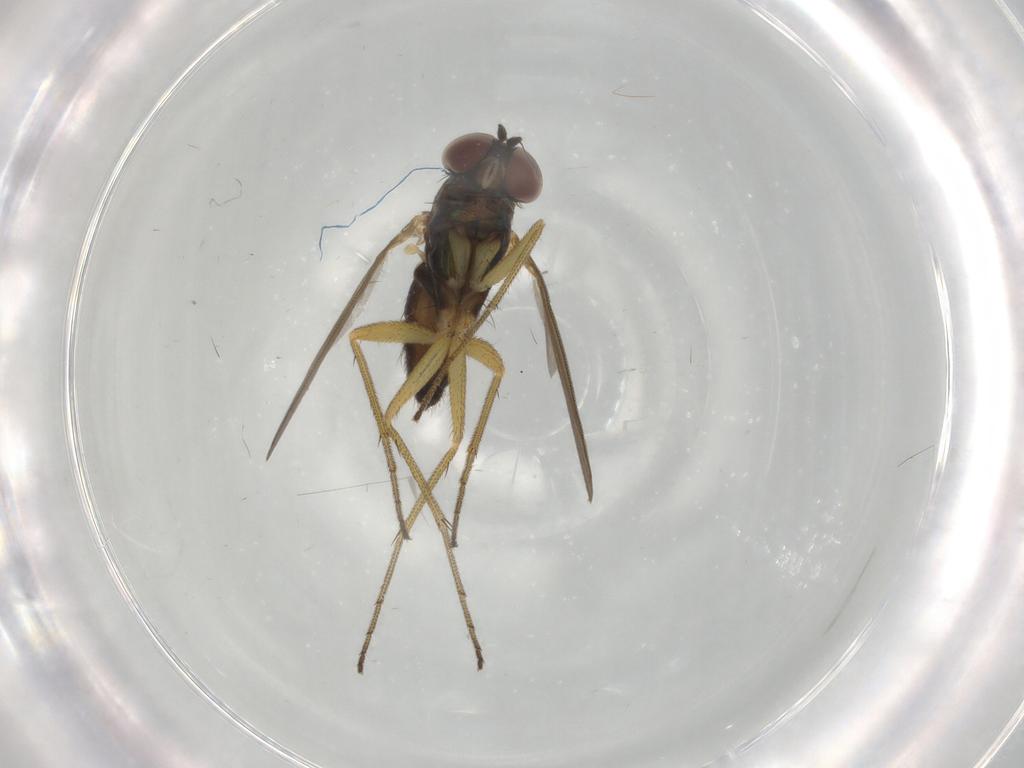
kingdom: Animalia
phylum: Arthropoda
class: Insecta
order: Diptera
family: Dolichopodidae
